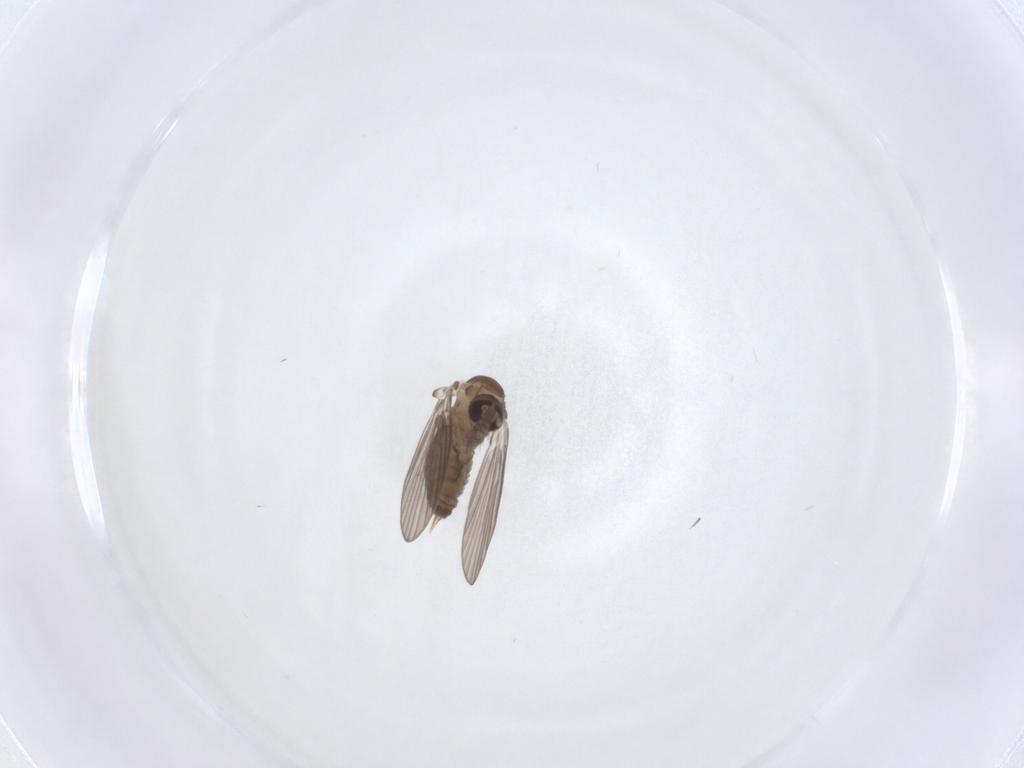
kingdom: Animalia
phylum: Arthropoda
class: Insecta
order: Diptera
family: Psychodidae
